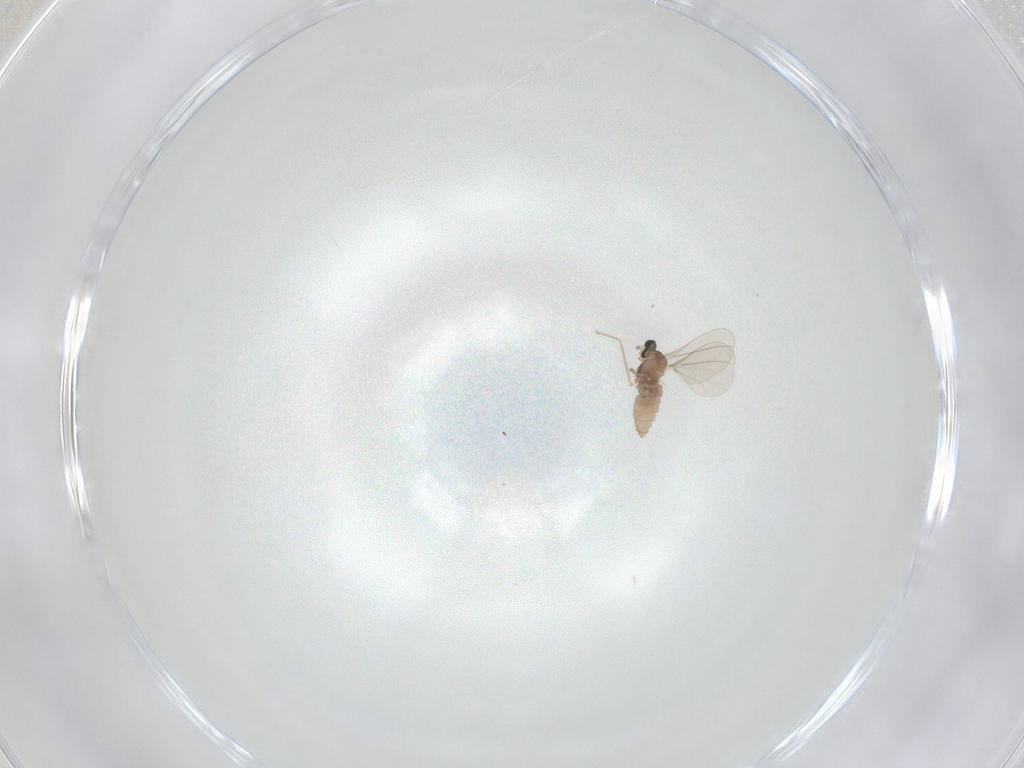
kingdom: Animalia
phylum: Arthropoda
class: Insecta
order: Diptera
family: Cecidomyiidae
